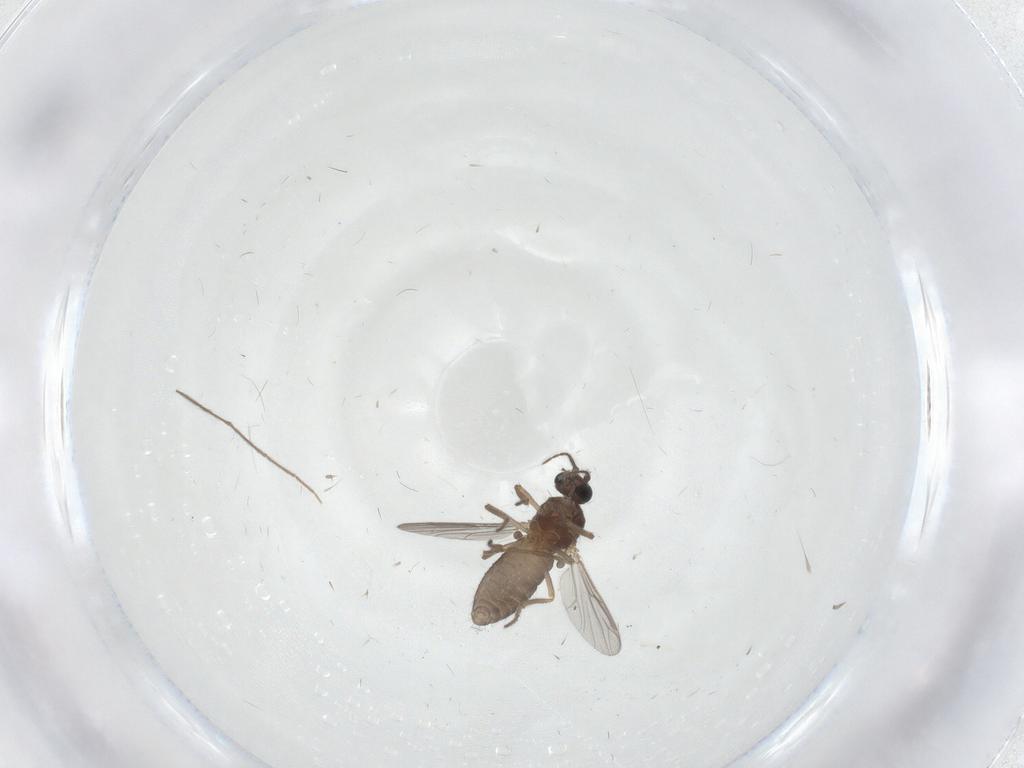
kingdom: Animalia
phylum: Arthropoda
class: Insecta
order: Diptera
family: Ceratopogonidae
